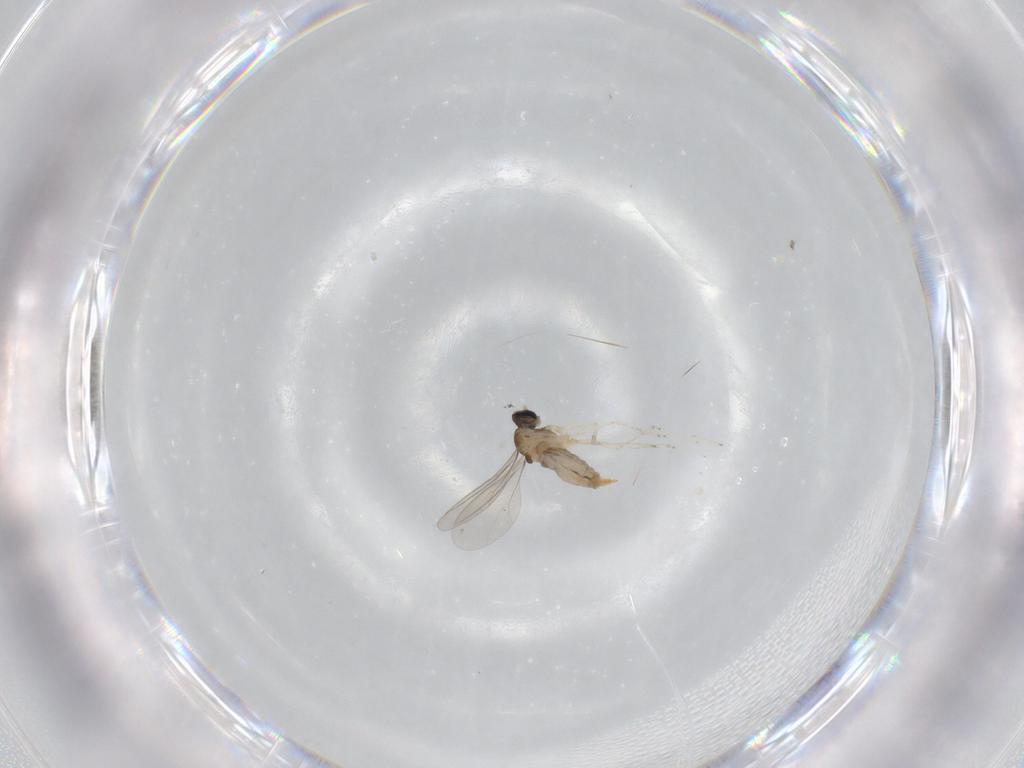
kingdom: Animalia
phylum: Arthropoda
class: Insecta
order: Diptera
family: Cecidomyiidae
